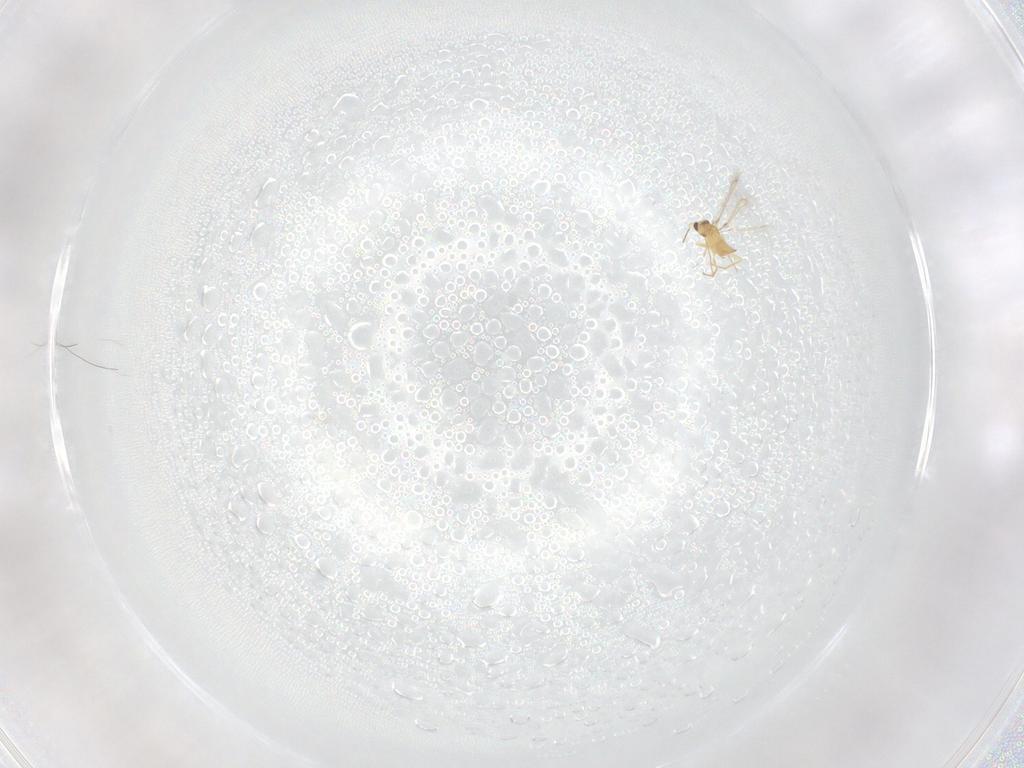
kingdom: Animalia
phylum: Arthropoda
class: Insecta
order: Hymenoptera
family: Mymaridae
